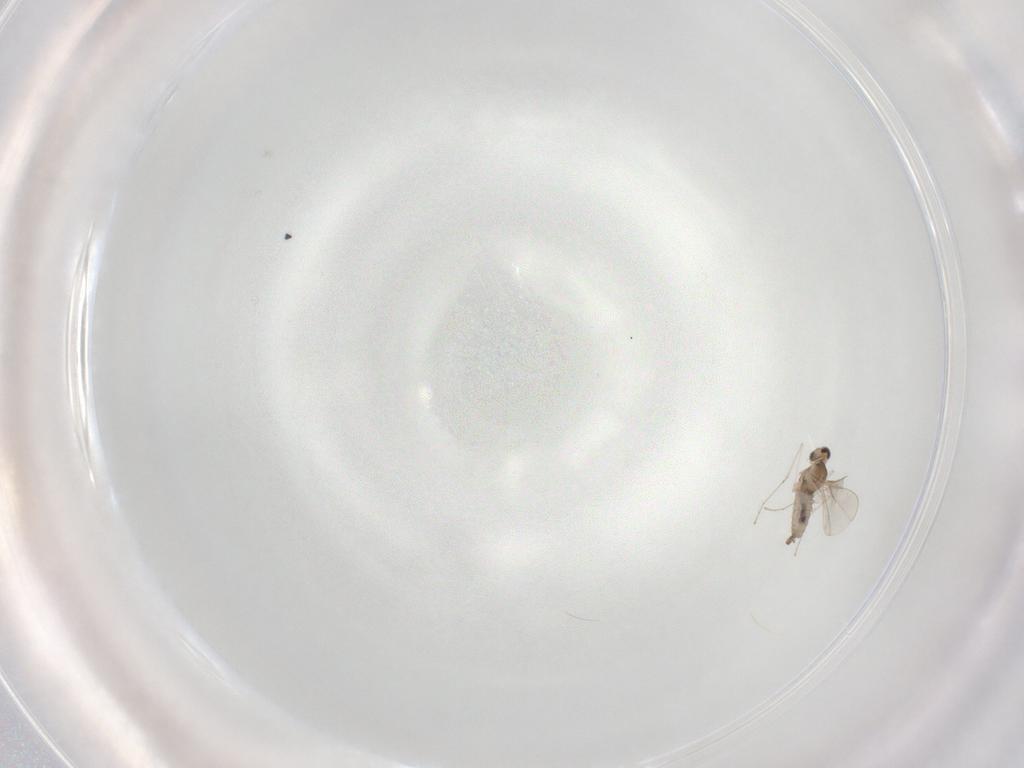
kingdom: Animalia
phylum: Arthropoda
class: Insecta
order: Diptera
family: Cecidomyiidae
